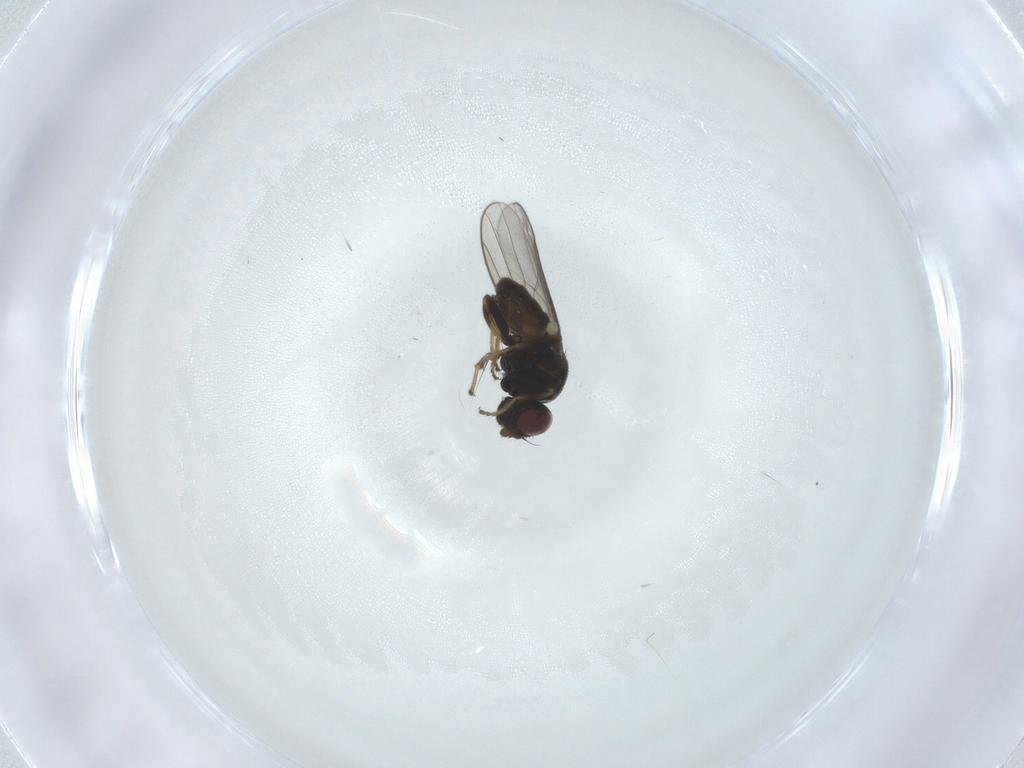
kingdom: Animalia
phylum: Arthropoda
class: Insecta
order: Diptera
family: Chloropidae
